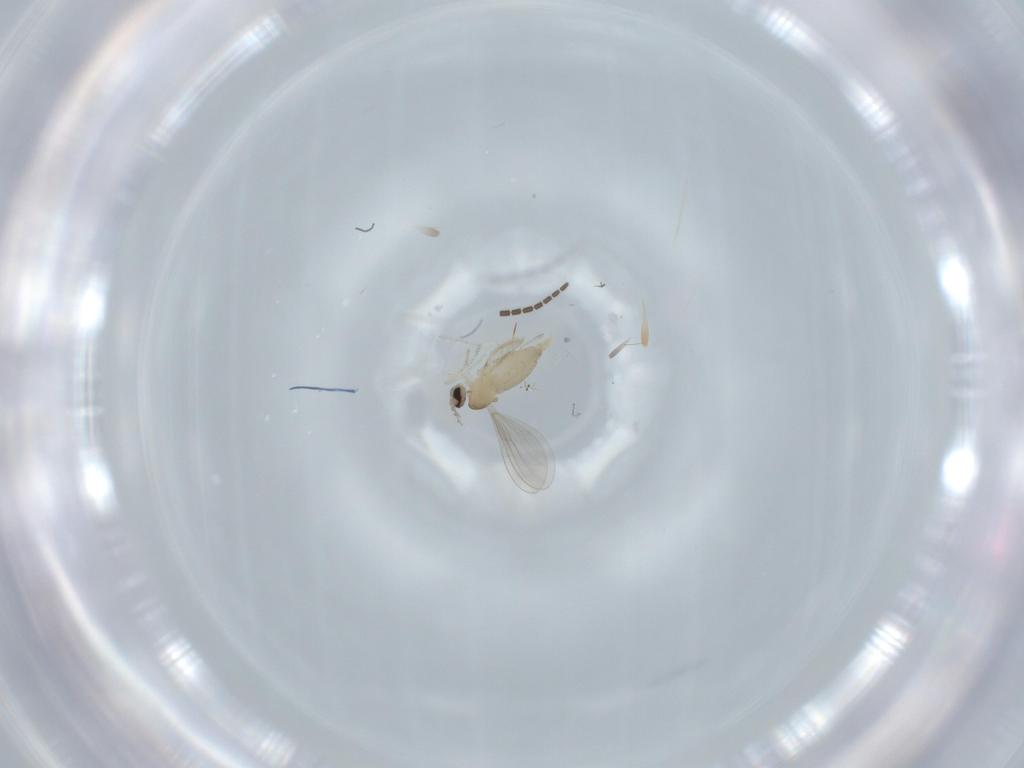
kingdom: Animalia
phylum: Arthropoda
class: Insecta
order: Diptera
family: Cecidomyiidae
